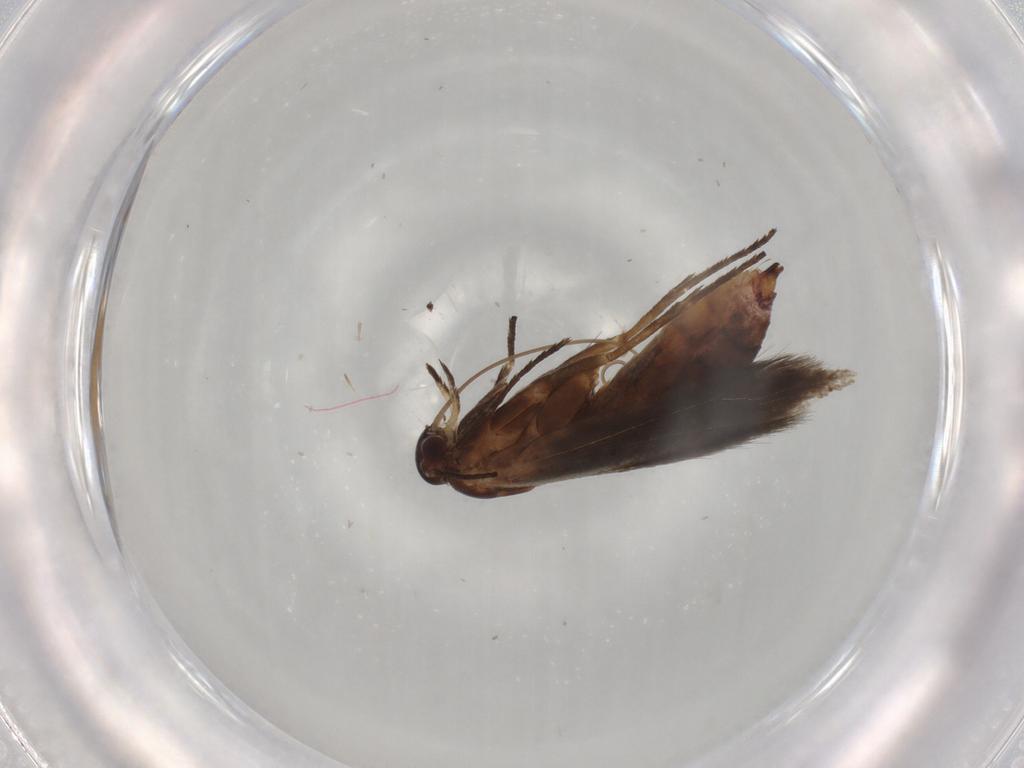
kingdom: Animalia
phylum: Arthropoda
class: Insecta
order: Lepidoptera
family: Scythrididae
